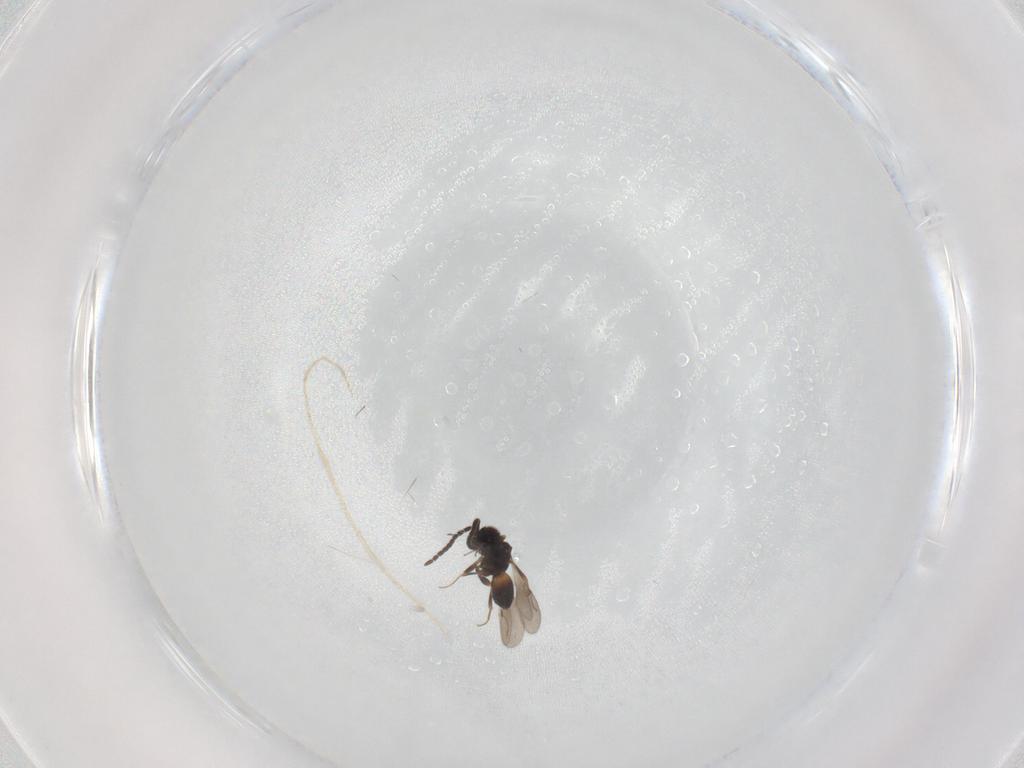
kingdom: Animalia
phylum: Arthropoda
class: Insecta
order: Hymenoptera
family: Ceraphronidae
